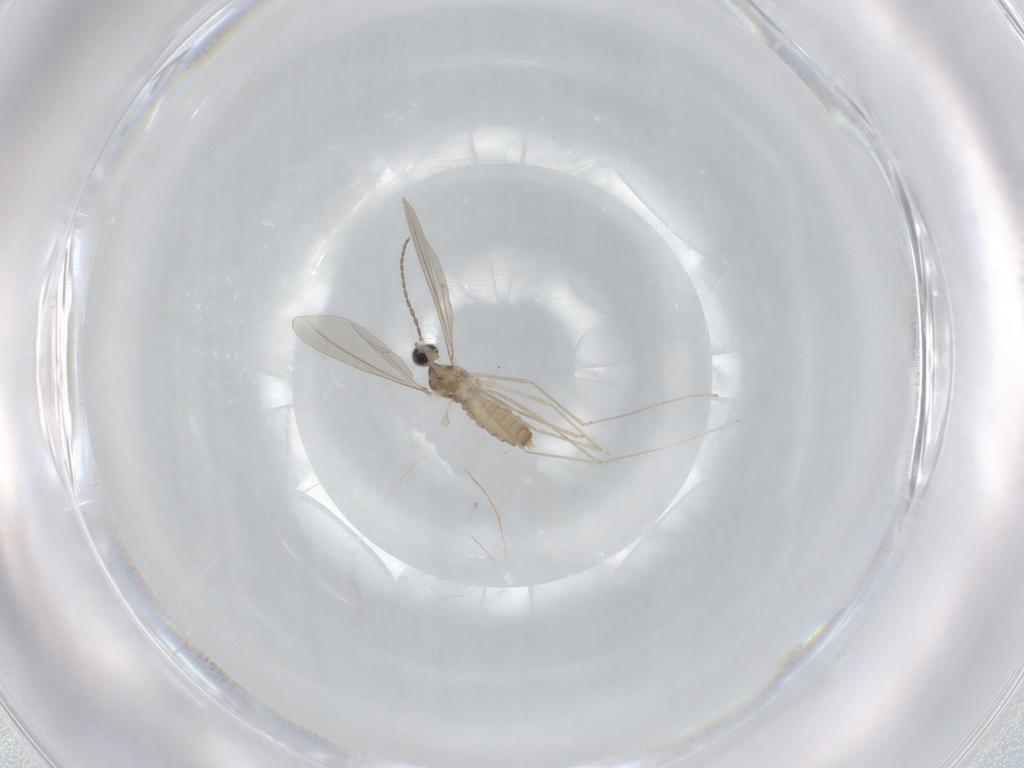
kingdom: Animalia
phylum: Arthropoda
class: Insecta
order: Diptera
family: Cecidomyiidae
